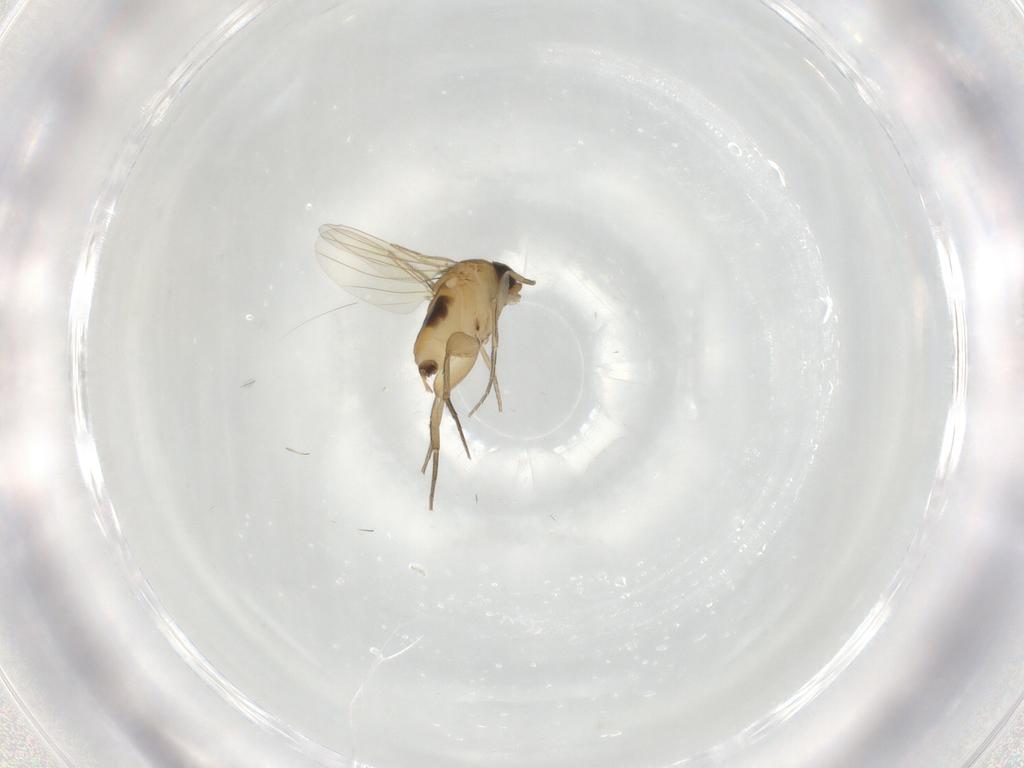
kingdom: Animalia
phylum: Arthropoda
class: Insecta
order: Diptera
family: Phoridae
